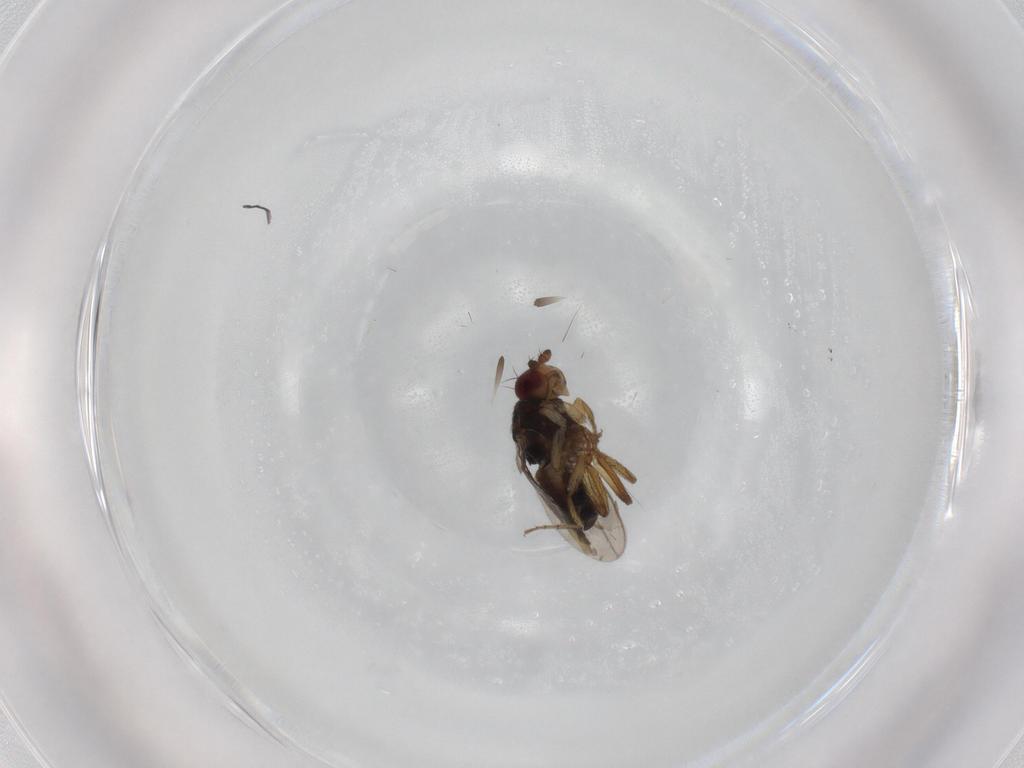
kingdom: Animalia
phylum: Arthropoda
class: Insecta
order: Diptera
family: Sphaeroceridae
